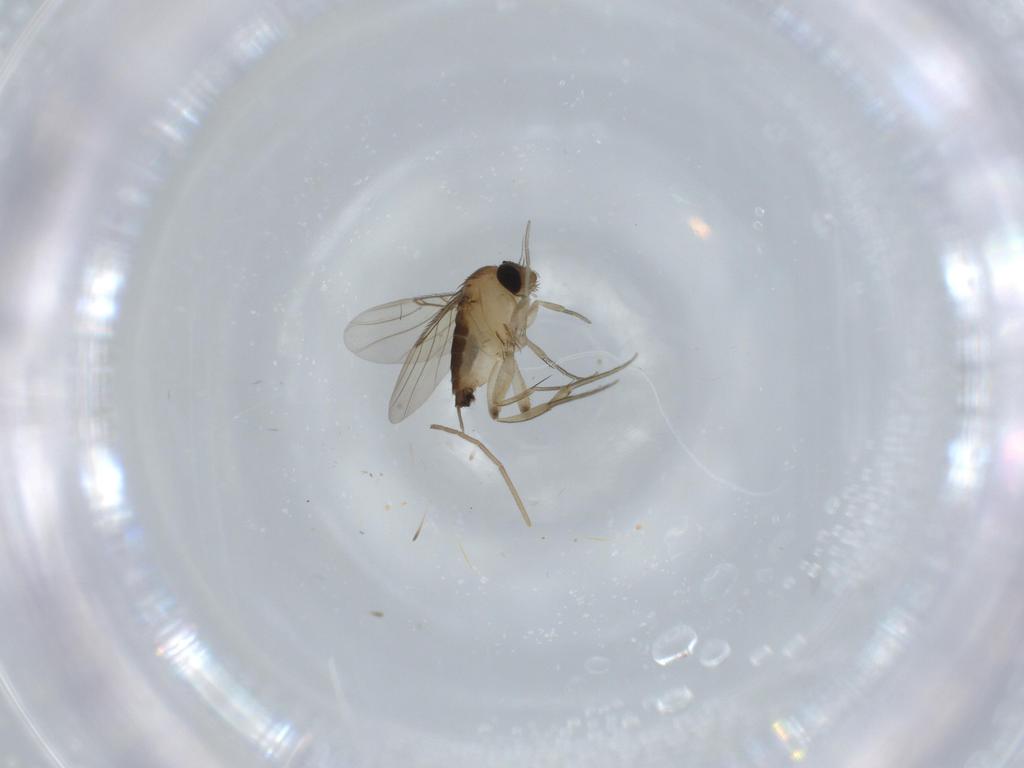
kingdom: Animalia
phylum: Arthropoda
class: Insecta
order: Diptera
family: Phoridae
